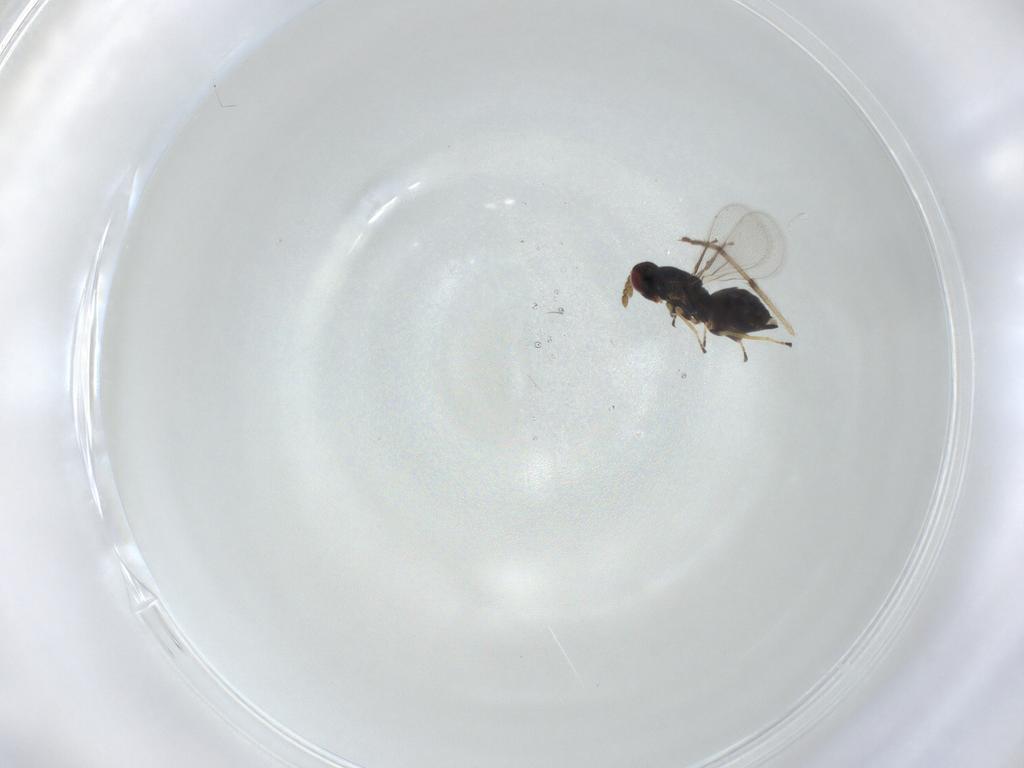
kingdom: Animalia
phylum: Arthropoda
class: Insecta
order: Hymenoptera
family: Eulophidae
